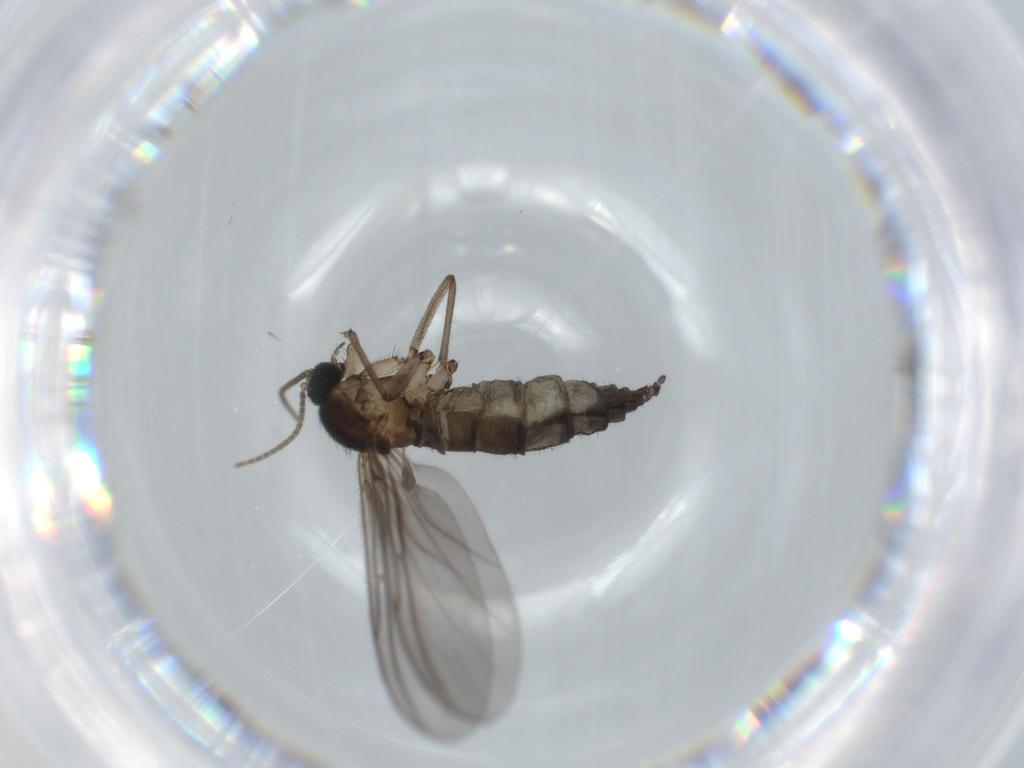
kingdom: Animalia
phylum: Arthropoda
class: Insecta
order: Diptera
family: Sciaridae
